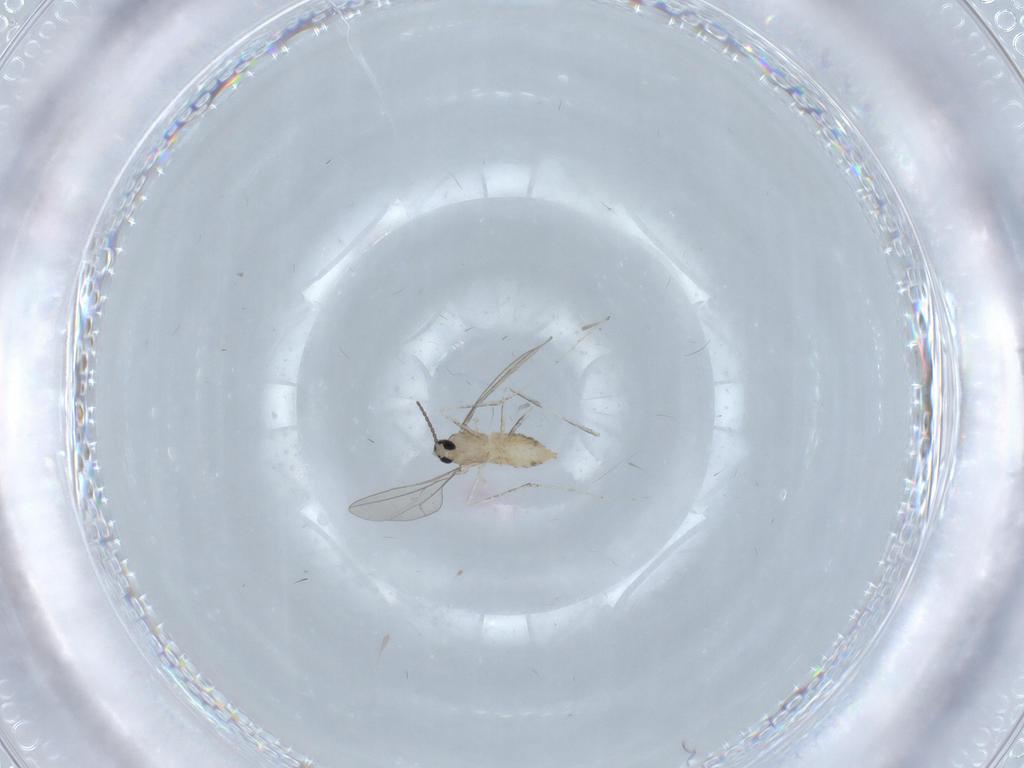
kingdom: Animalia
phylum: Arthropoda
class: Insecta
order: Diptera
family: Cecidomyiidae
